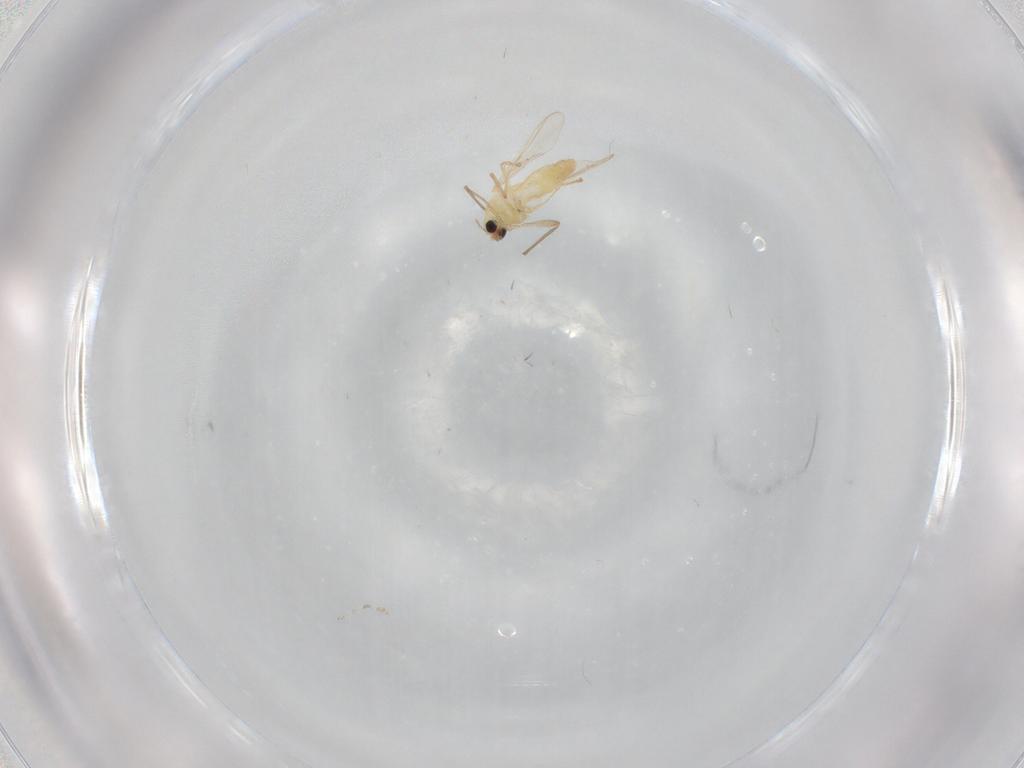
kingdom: Animalia
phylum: Arthropoda
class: Insecta
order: Diptera
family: Chironomidae
